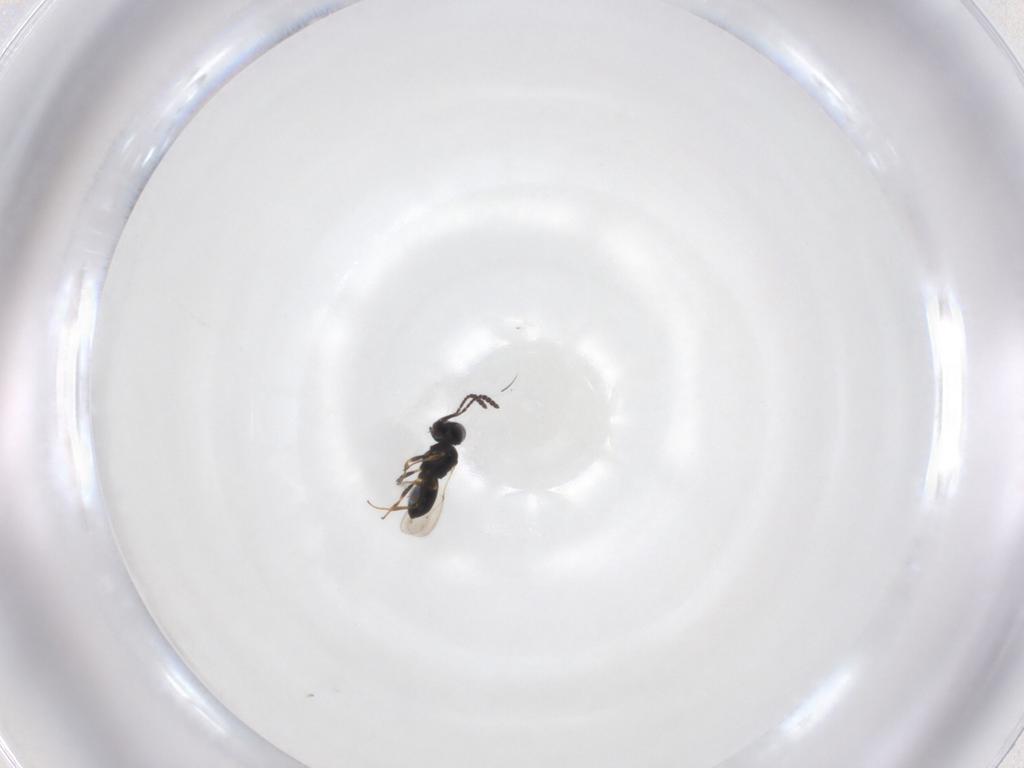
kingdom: Animalia
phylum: Arthropoda
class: Insecta
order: Hymenoptera
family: Scelionidae
